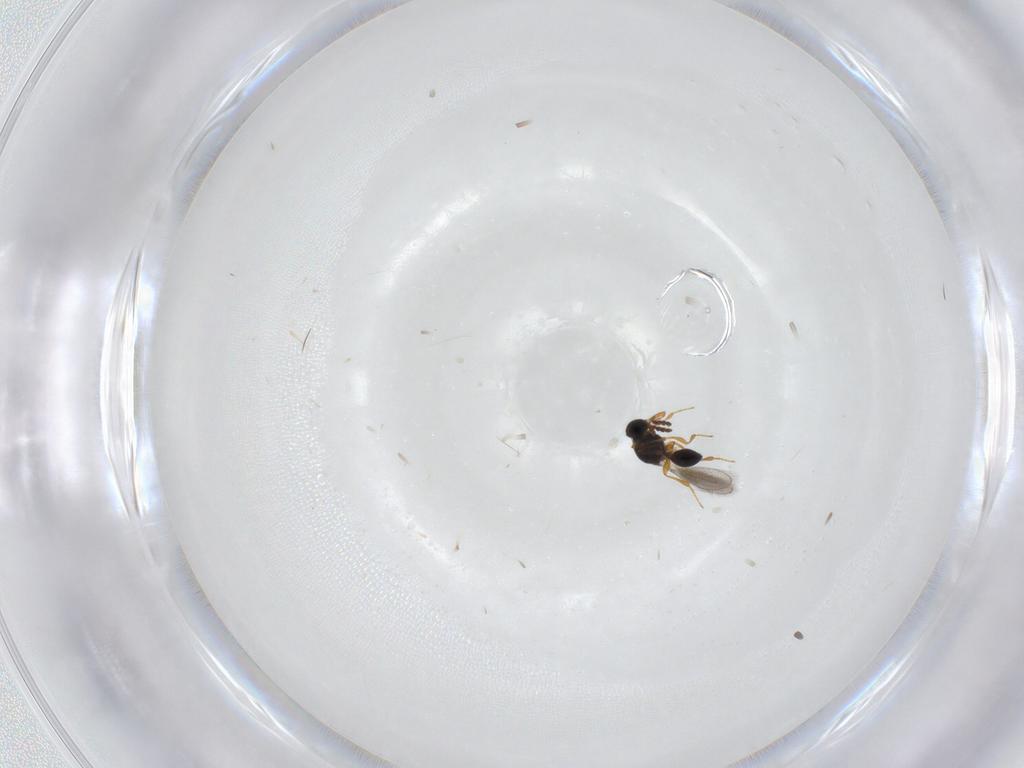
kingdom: Animalia
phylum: Arthropoda
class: Insecta
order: Hymenoptera
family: Platygastridae
